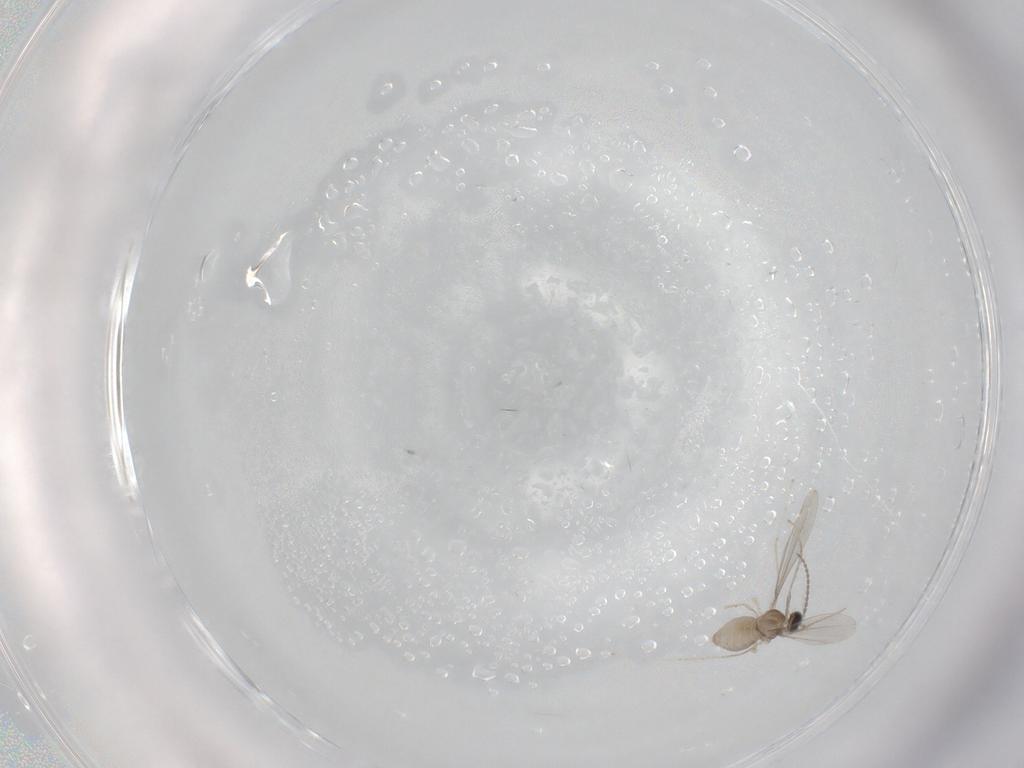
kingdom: Animalia
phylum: Arthropoda
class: Insecta
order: Diptera
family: Cecidomyiidae
